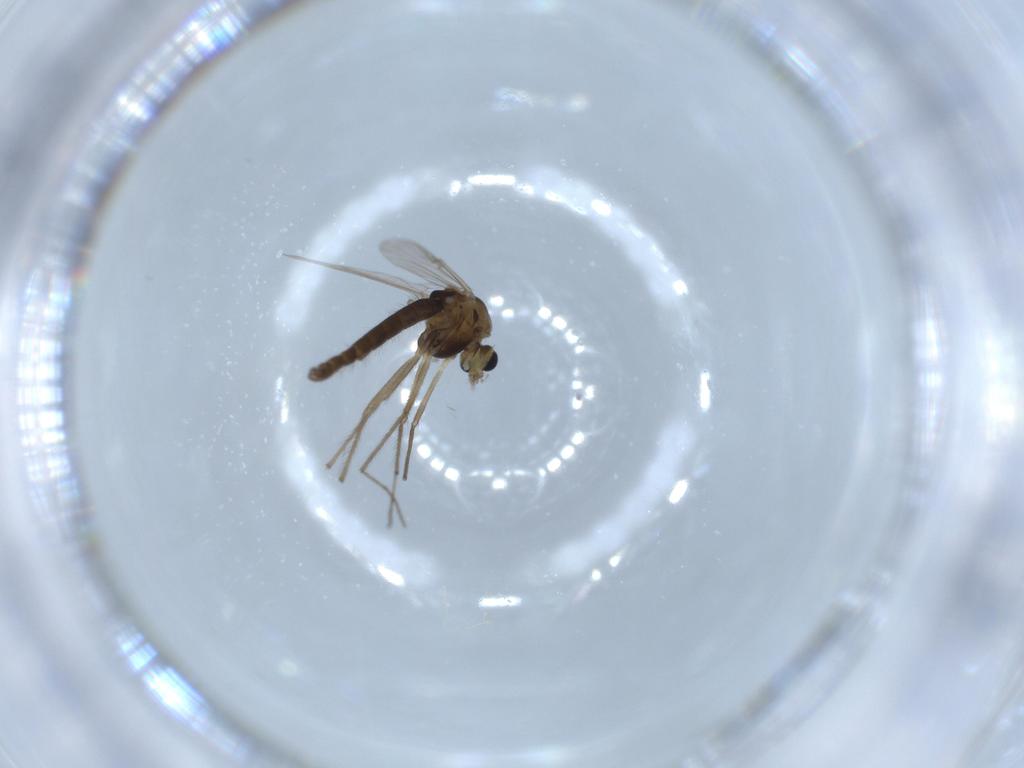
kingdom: Animalia
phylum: Arthropoda
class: Insecta
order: Diptera
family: Chironomidae
